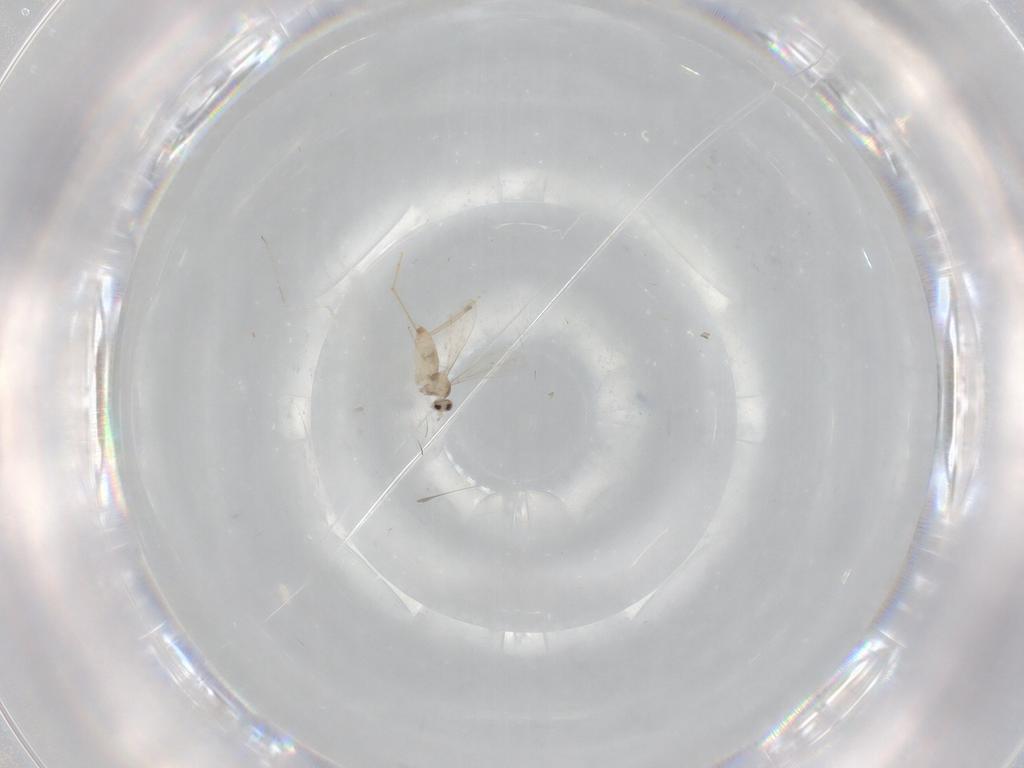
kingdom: Animalia
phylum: Arthropoda
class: Insecta
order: Diptera
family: Cecidomyiidae
